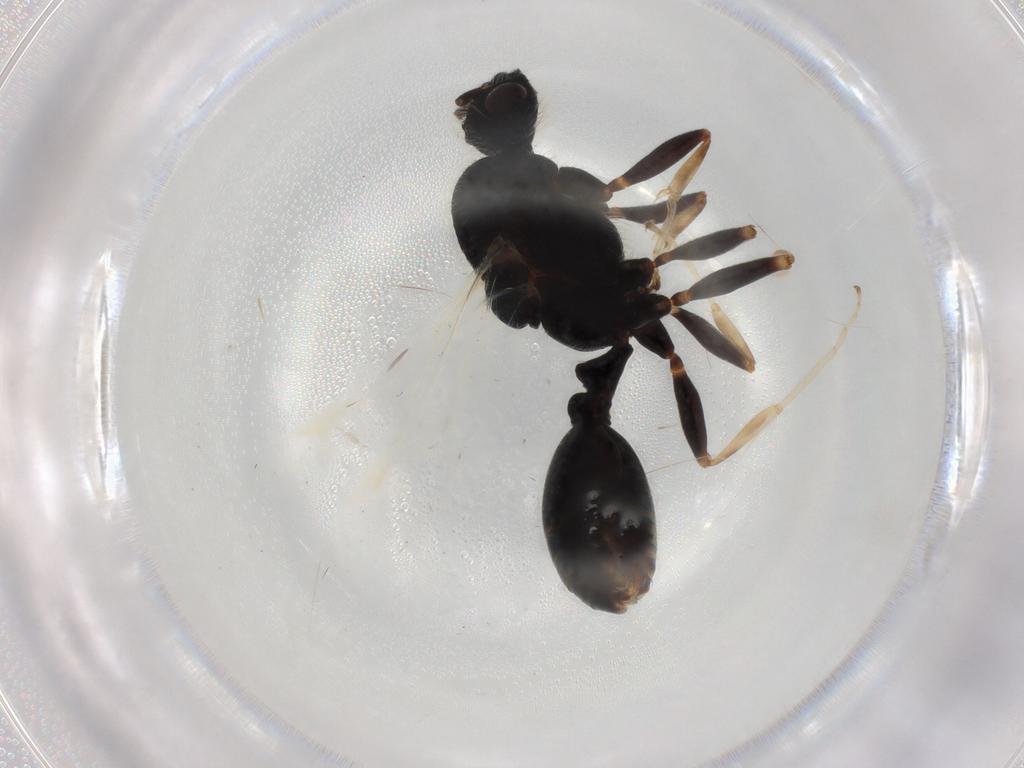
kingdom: Animalia
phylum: Arthropoda
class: Insecta
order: Hymenoptera
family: Formicidae
